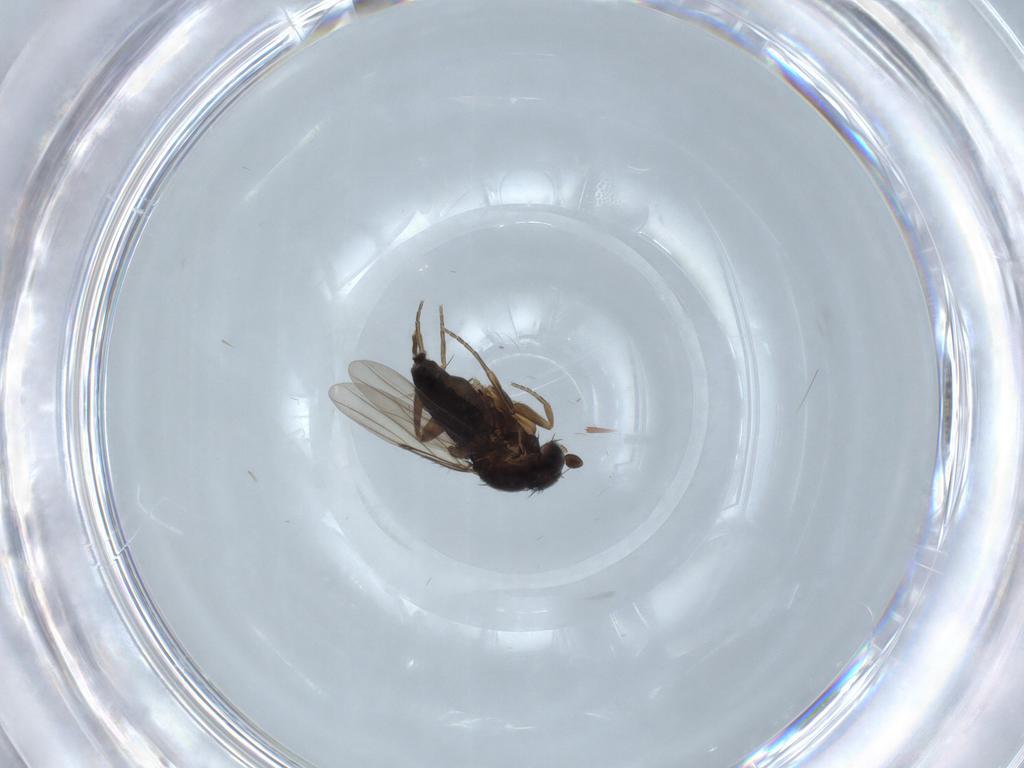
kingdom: Animalia
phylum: Arthropoda
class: Insecta
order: Diptera
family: Phoridae
